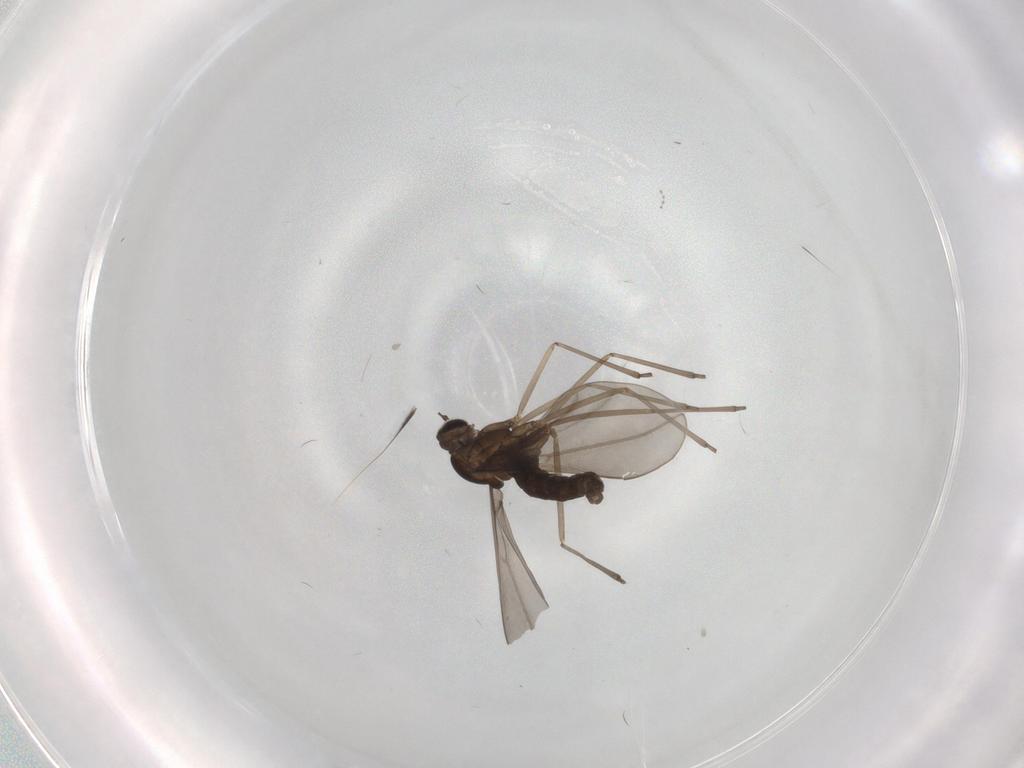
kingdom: Animalia
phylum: Arthropoda
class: Insecta
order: Diptera
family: Cecidomyiidae
